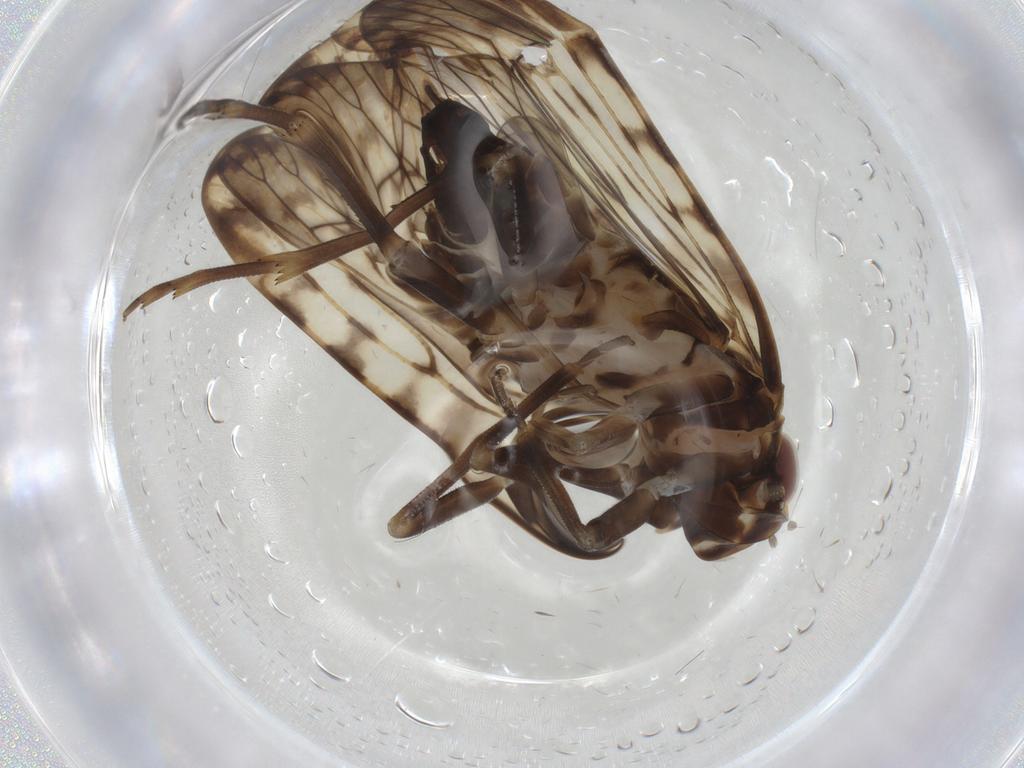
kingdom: Animalia
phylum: Arthropoda
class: Insecta
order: Hemiptera
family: Cixiidae
